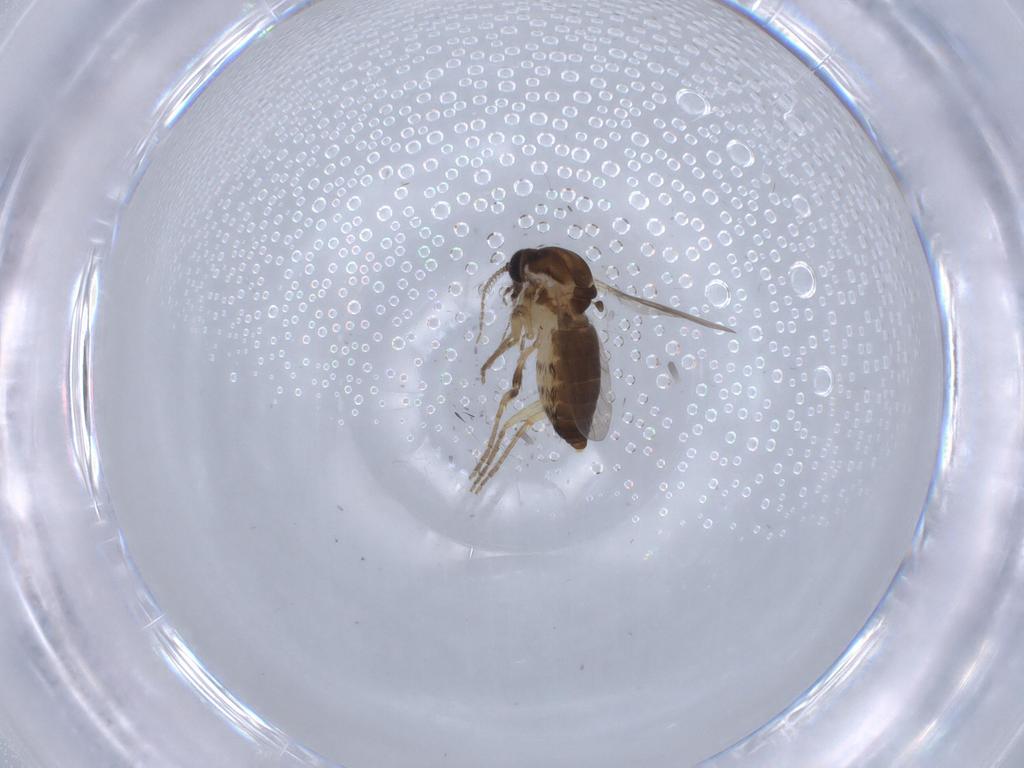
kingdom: Animalia
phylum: Arthropoda
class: Insecta
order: Diptera
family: Ceratopogonidae
